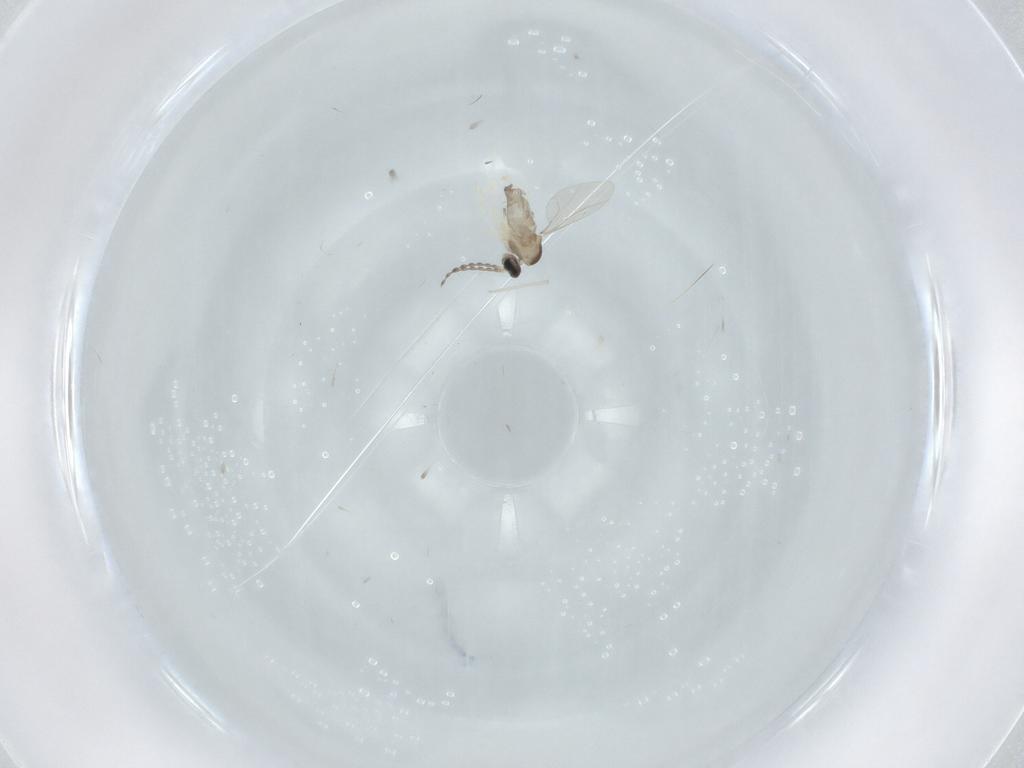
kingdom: Animalia
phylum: Arthropoda
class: Insecta
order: Diptera
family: Cecidomyiidae
